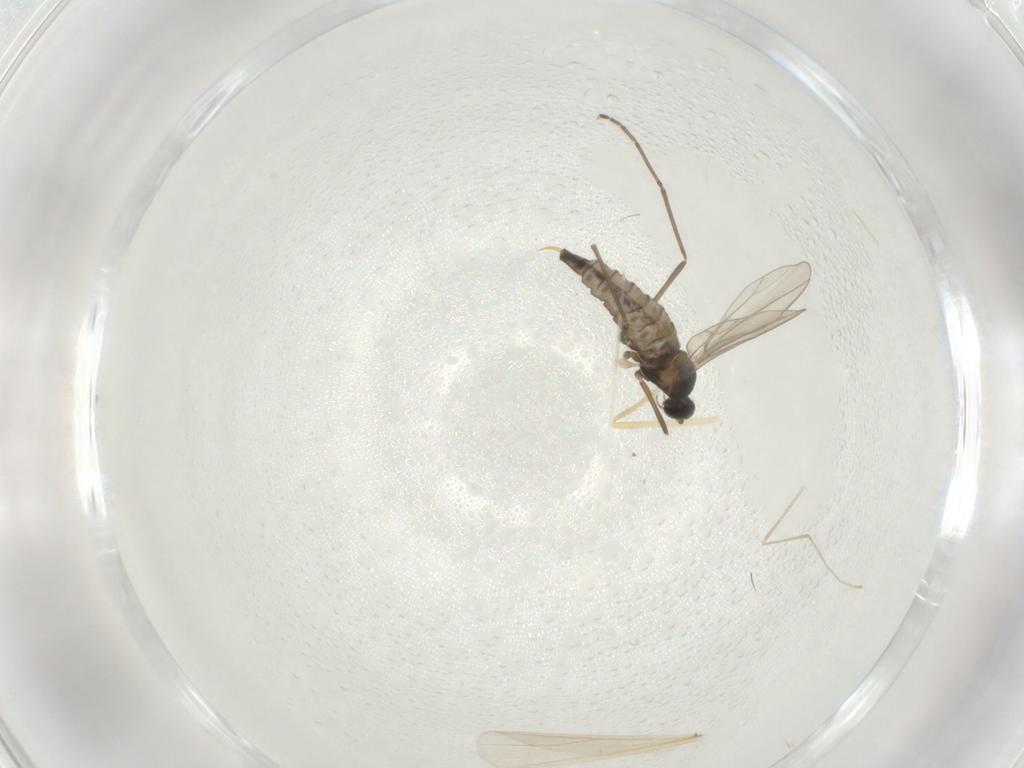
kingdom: Animalia
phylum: Arthropoda
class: Insecta
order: Diptera
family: Cecidomyiidae
